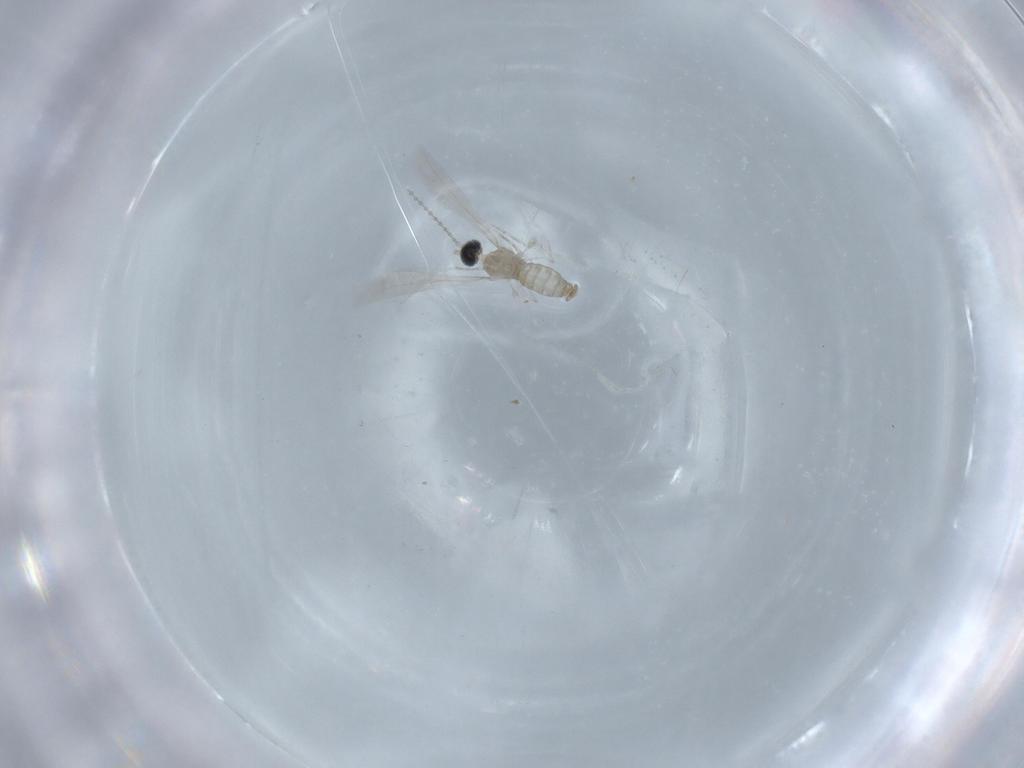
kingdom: Animalia
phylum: Arthropoda
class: Insecta
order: Diptera
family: Cecidomyiidae
